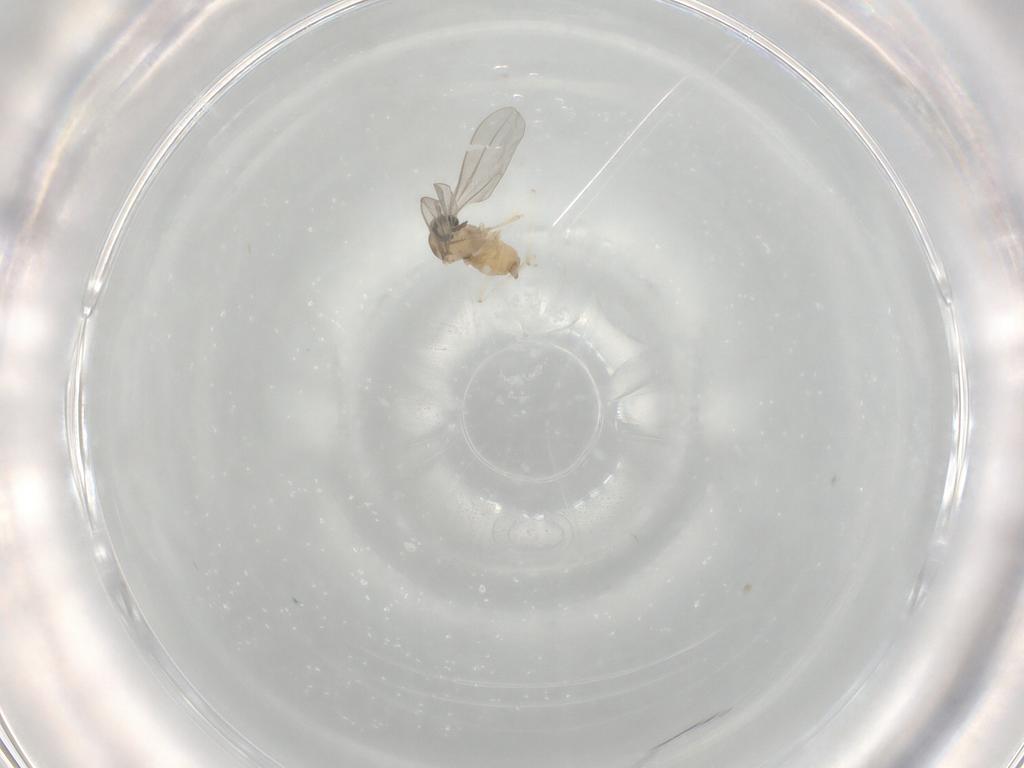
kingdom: Animalia
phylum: Arthropoda
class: Insecta
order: Diptera
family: Cecidomyiidae
